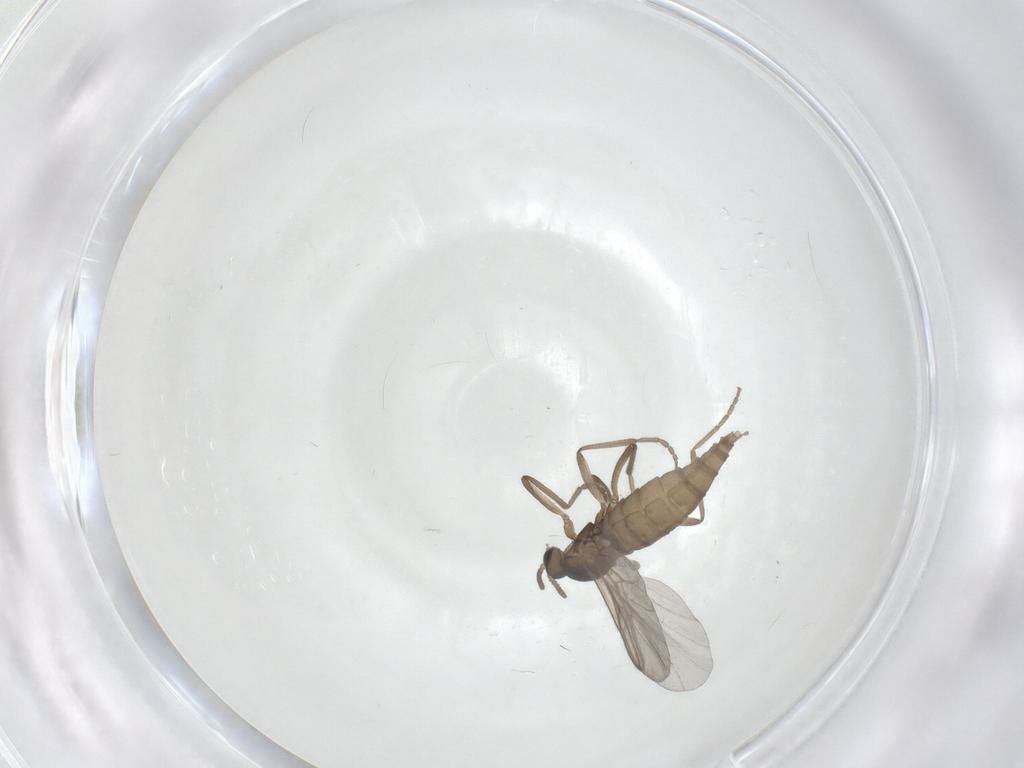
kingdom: Animalia
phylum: Arthropoda
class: Insecta
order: Diptera
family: Cecidomyiidae
